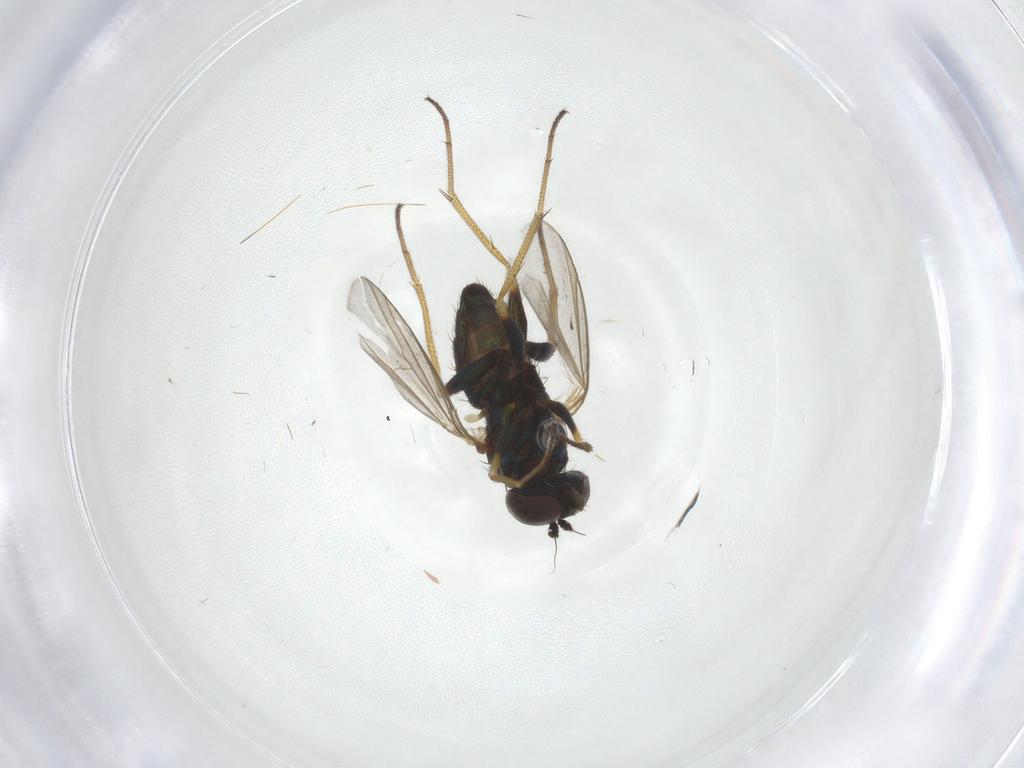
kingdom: Animalia
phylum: Arthropoda
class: Insecta
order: Diptera
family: Dolichopodidae
